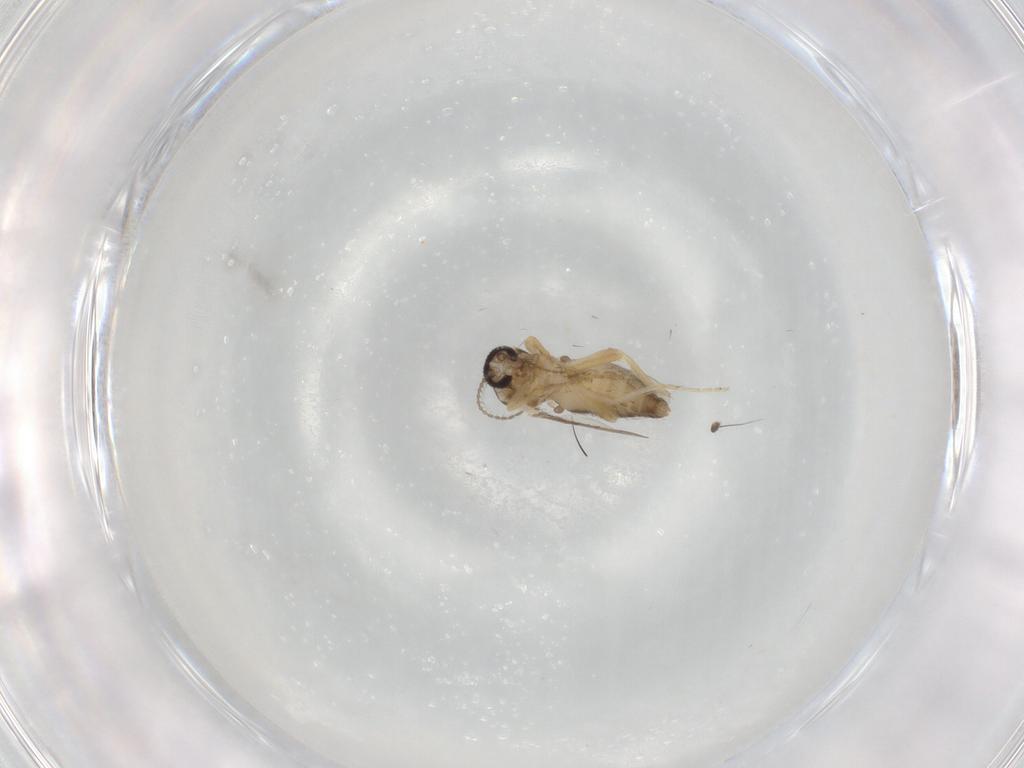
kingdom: Animalia
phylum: Arthropoda
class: Insecta
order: Diptera
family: Ceratopogonidae
